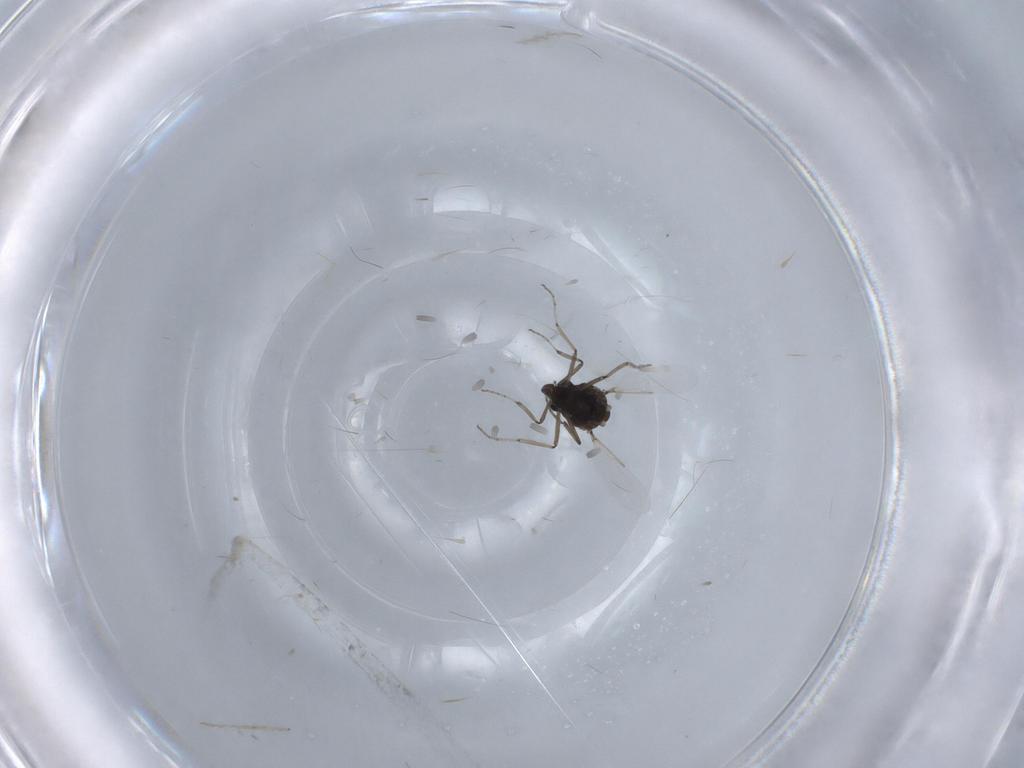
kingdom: Animalia
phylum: Arthropoda
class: Insecta
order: Diptera
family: Ceratopogonidae
